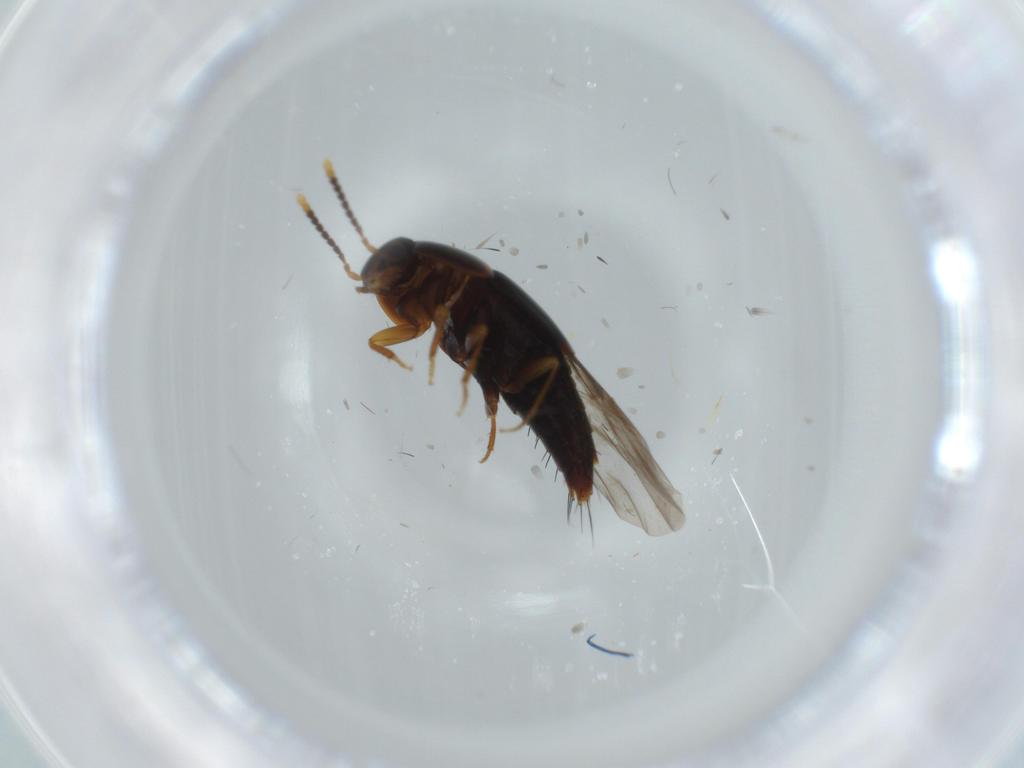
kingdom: Animalia
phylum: Arthropoda
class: Insecta
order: Coleoptera
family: Staphylinidae
